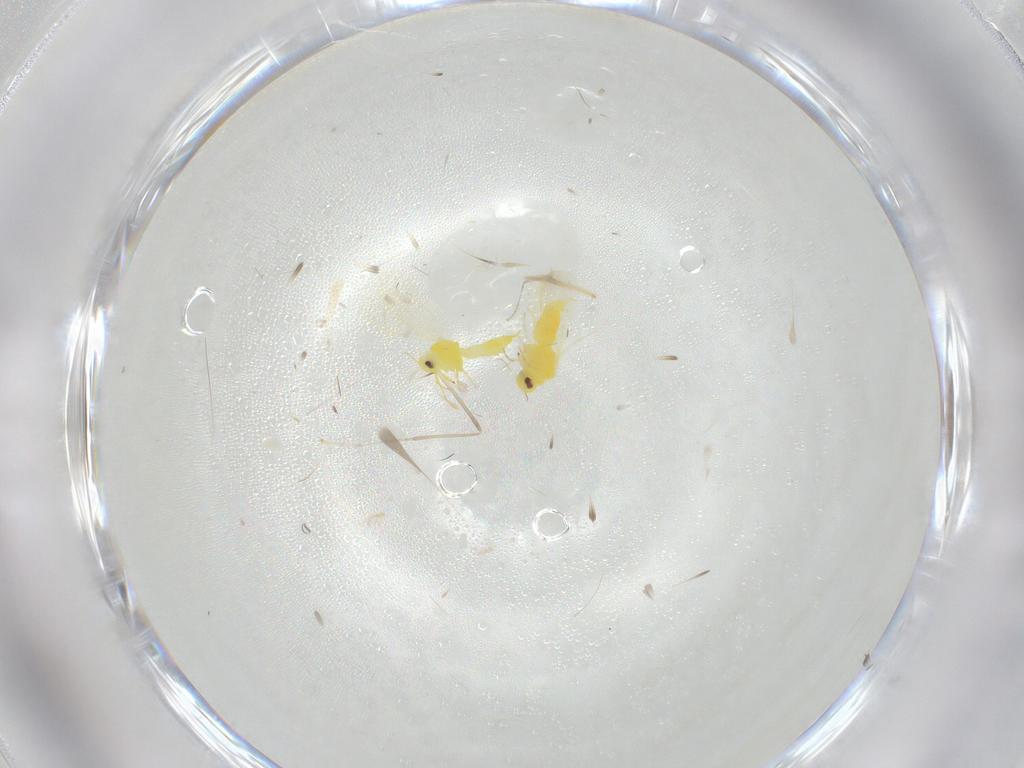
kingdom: Animalia
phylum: Arthropoda
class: Insecta
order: Hemiptera
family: Aleyrodidae
